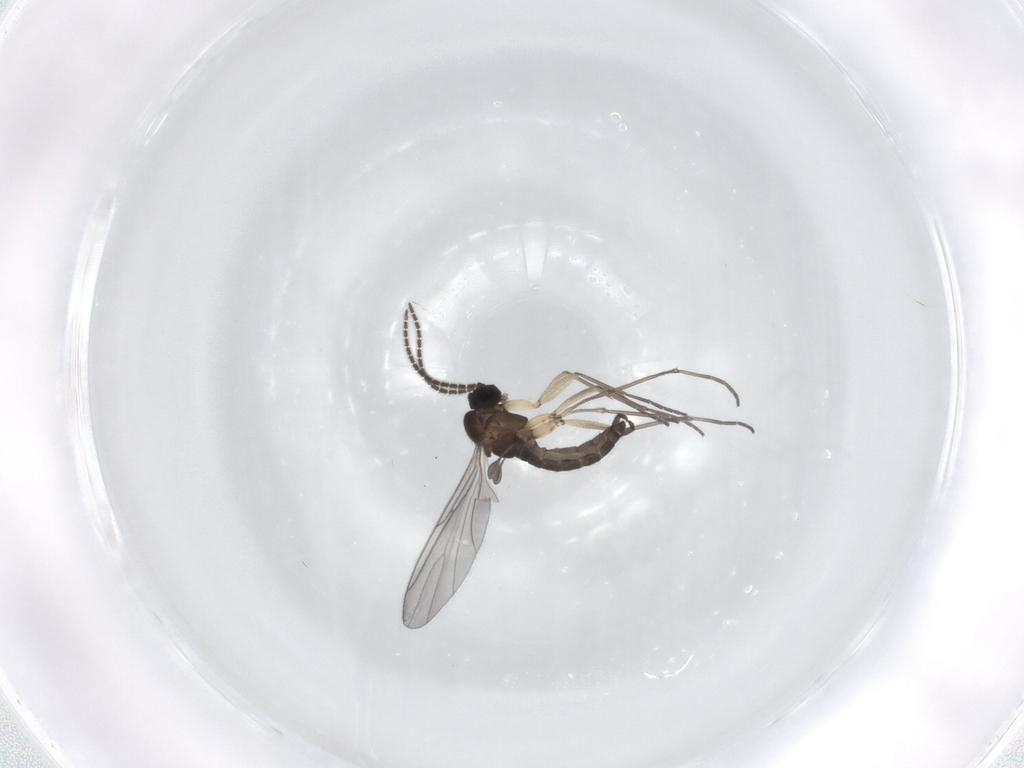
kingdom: Animalia
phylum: Arthropoda
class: Insecta
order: Diptera
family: Sciaridae
